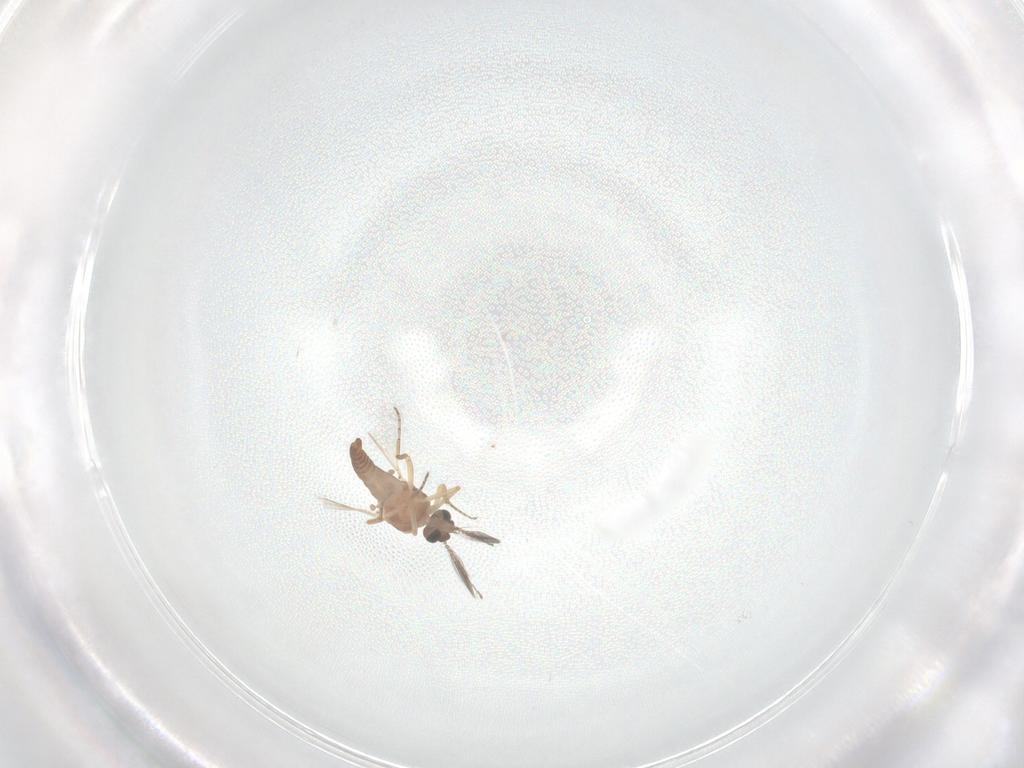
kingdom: Animalia
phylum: Arthropoda
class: Insecta
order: Diptera
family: Ceratopogonidae
